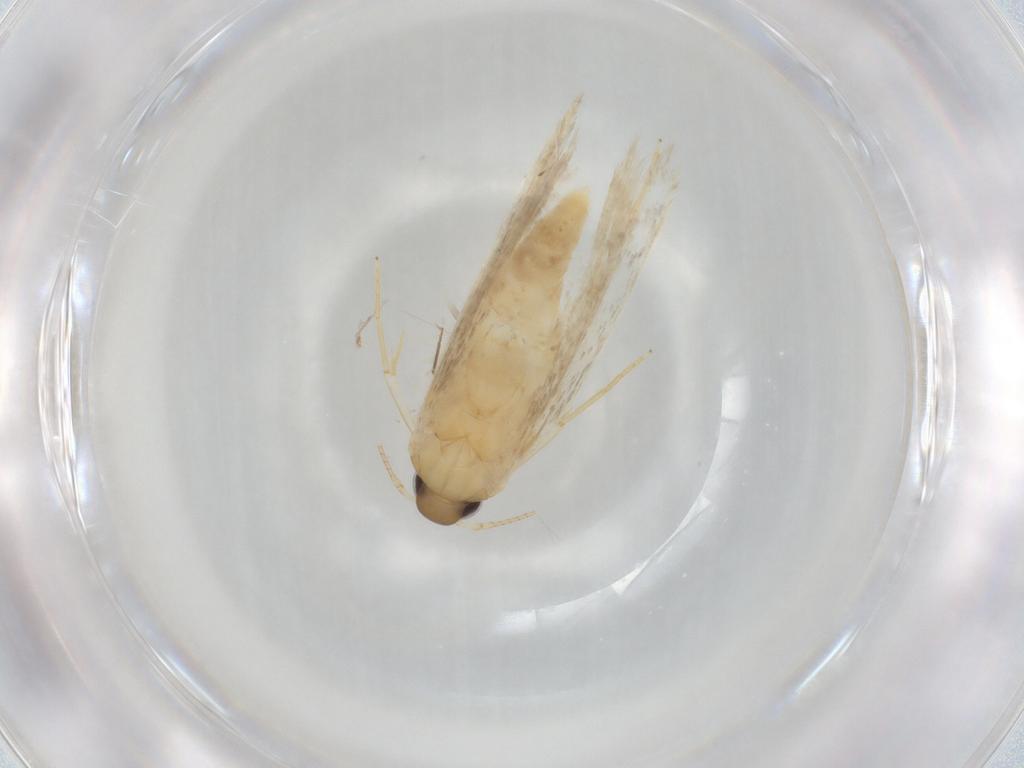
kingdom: Animalia
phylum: Arthropoda
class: Insecta
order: Lepidoptera
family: Autostichidae
